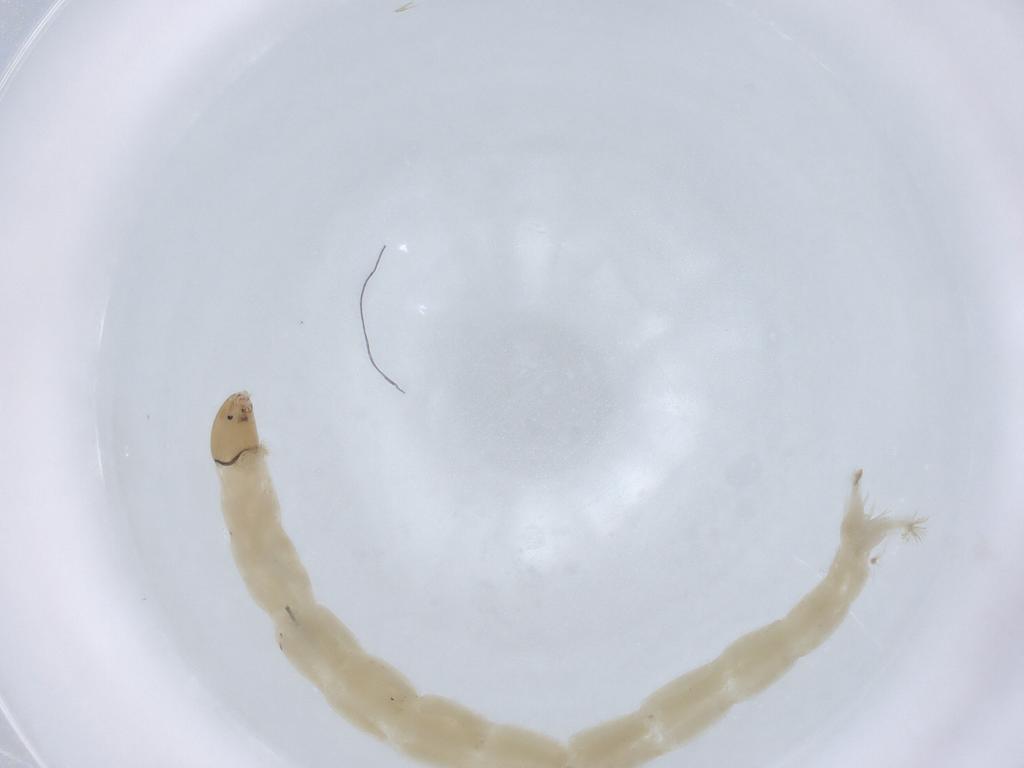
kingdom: Animalia
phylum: Arthropoda
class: Insecta
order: Diptera
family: Chironomidae
